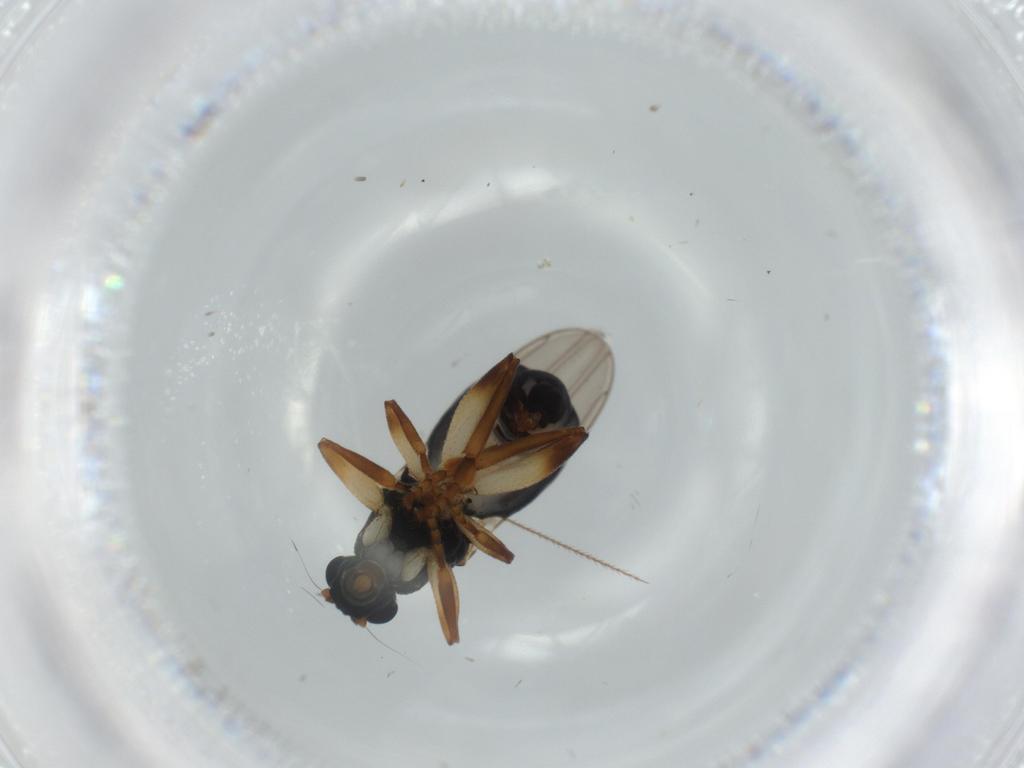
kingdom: Animalia
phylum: Arthropoda
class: Insecta
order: Diptera
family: Sphaeroceridae
